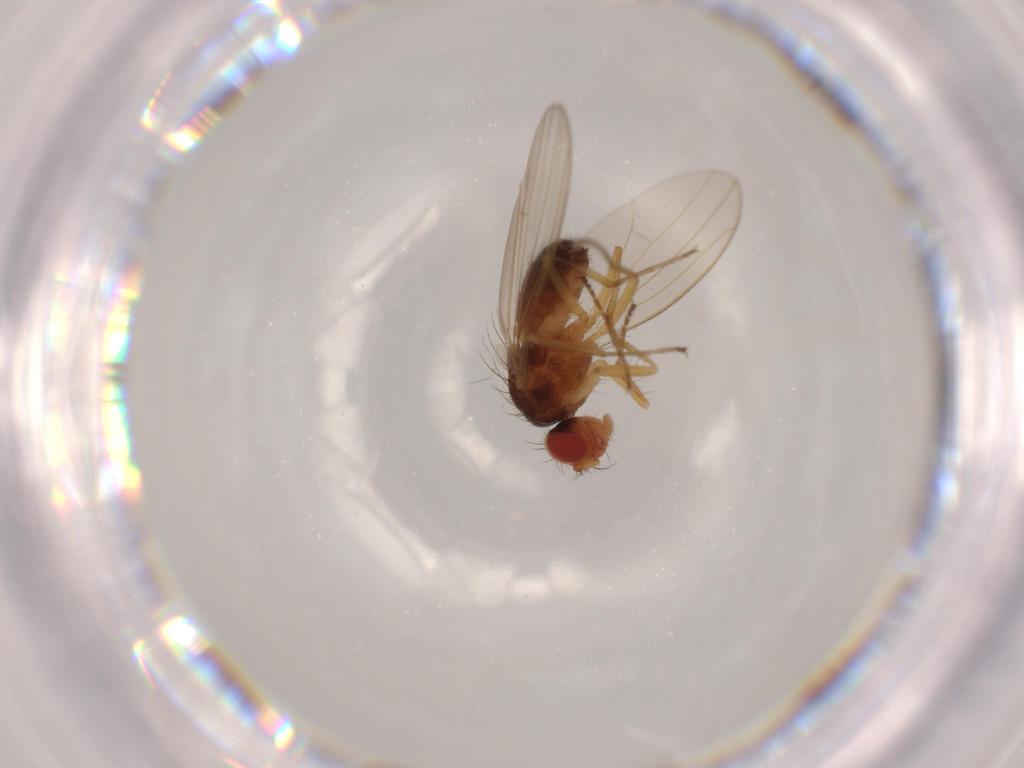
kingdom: Animalia
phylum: Arthropoda
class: Insecta
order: Diptera
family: Drosophilidae
